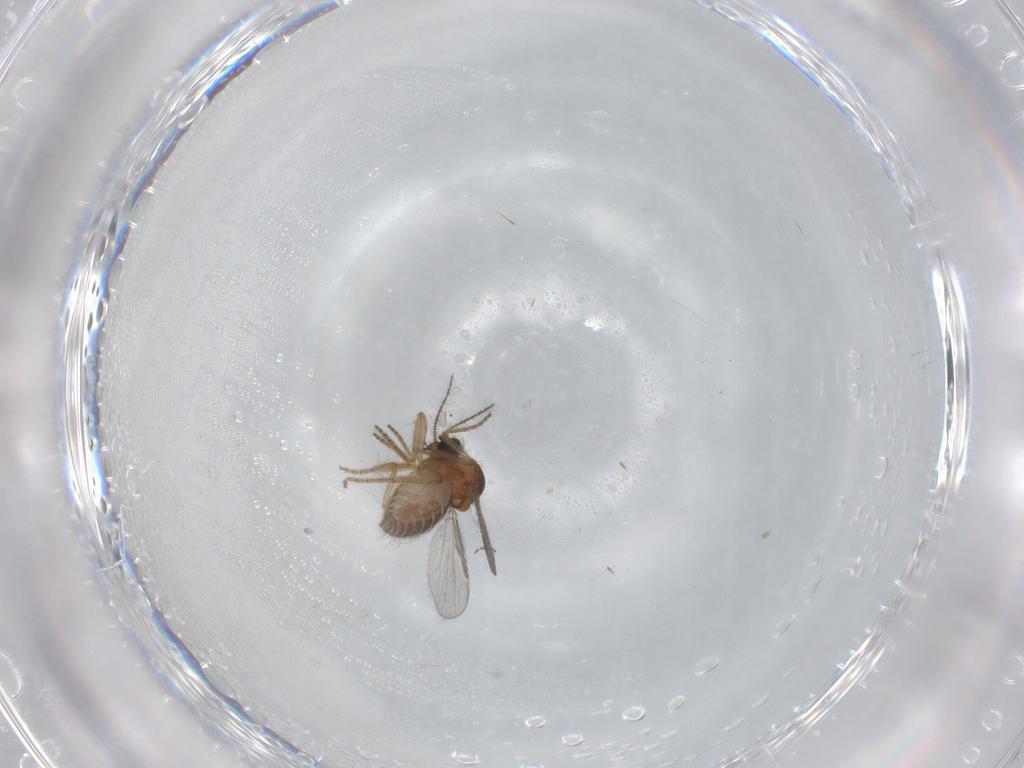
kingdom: Animalia
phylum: Arthropoda
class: Insecta
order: Diptera
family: Ceratopogonidae
